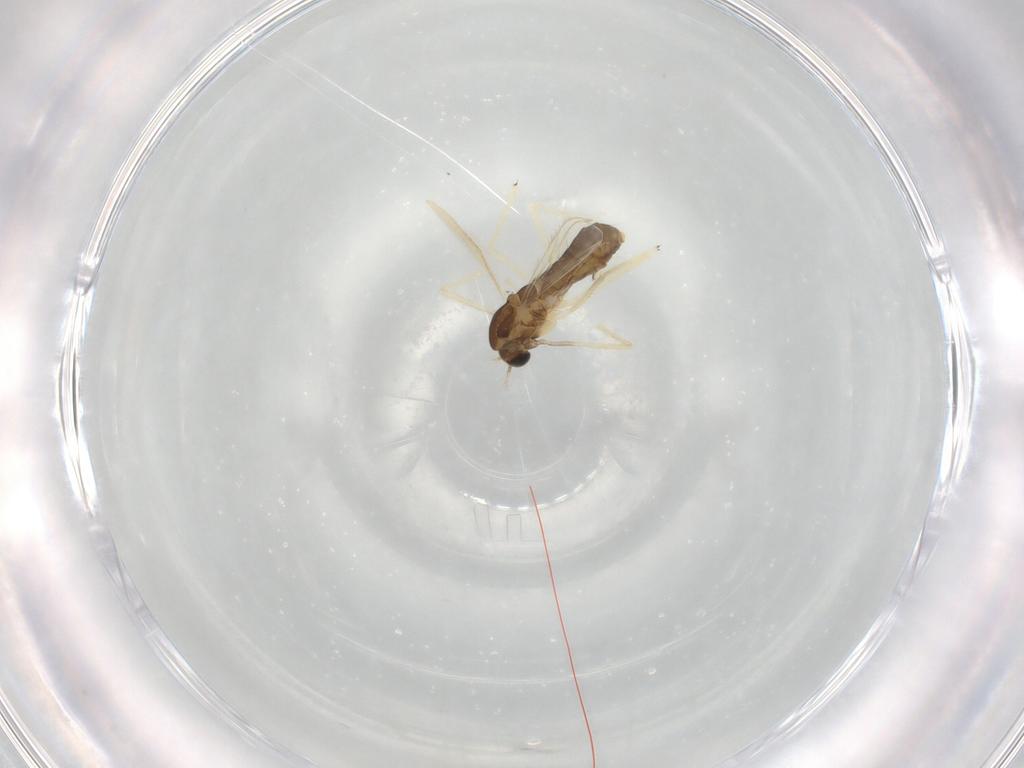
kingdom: Animalia
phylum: Arthropoda
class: Insecta
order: Diptera
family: Chironomidae
